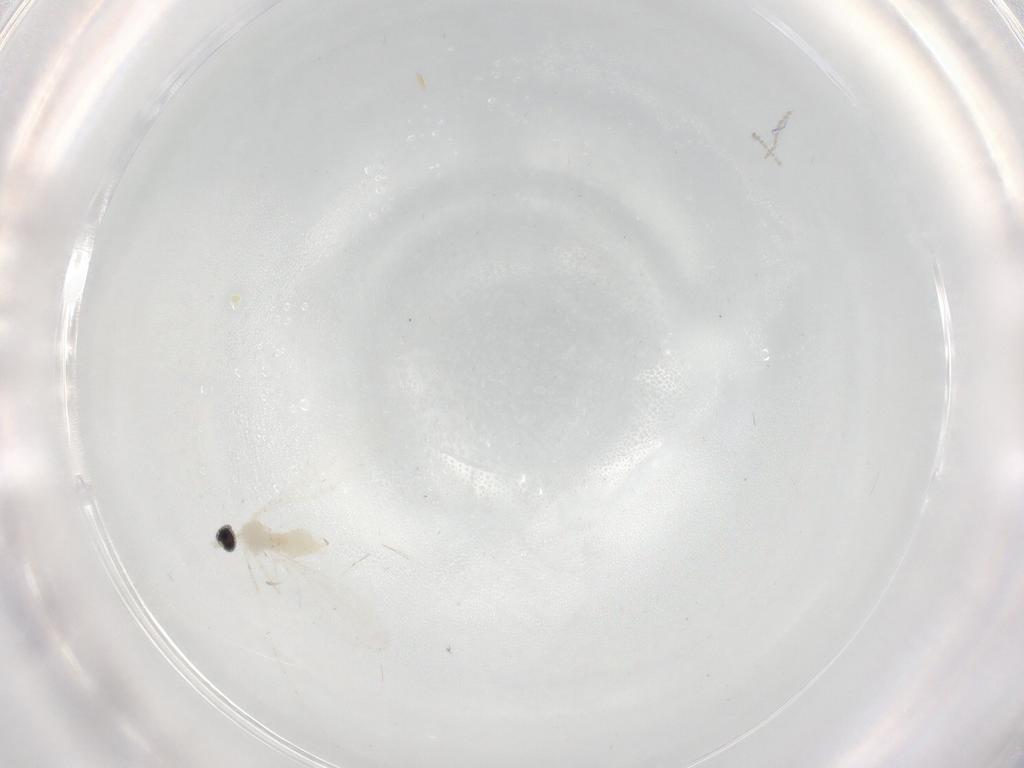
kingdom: Animalia
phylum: Arthropoda
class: Insecta
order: Diptera
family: Cecidomyiidae
